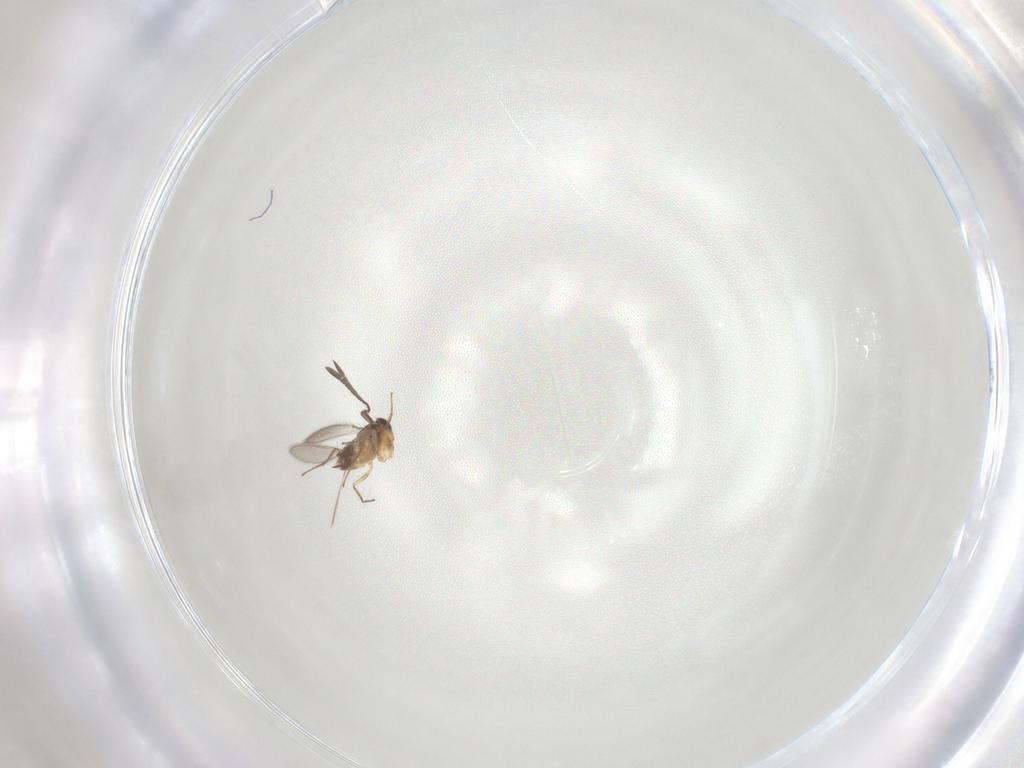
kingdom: Animalia
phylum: Arthropoda
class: Insecta
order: Hymenoptera
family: Mymaridae
